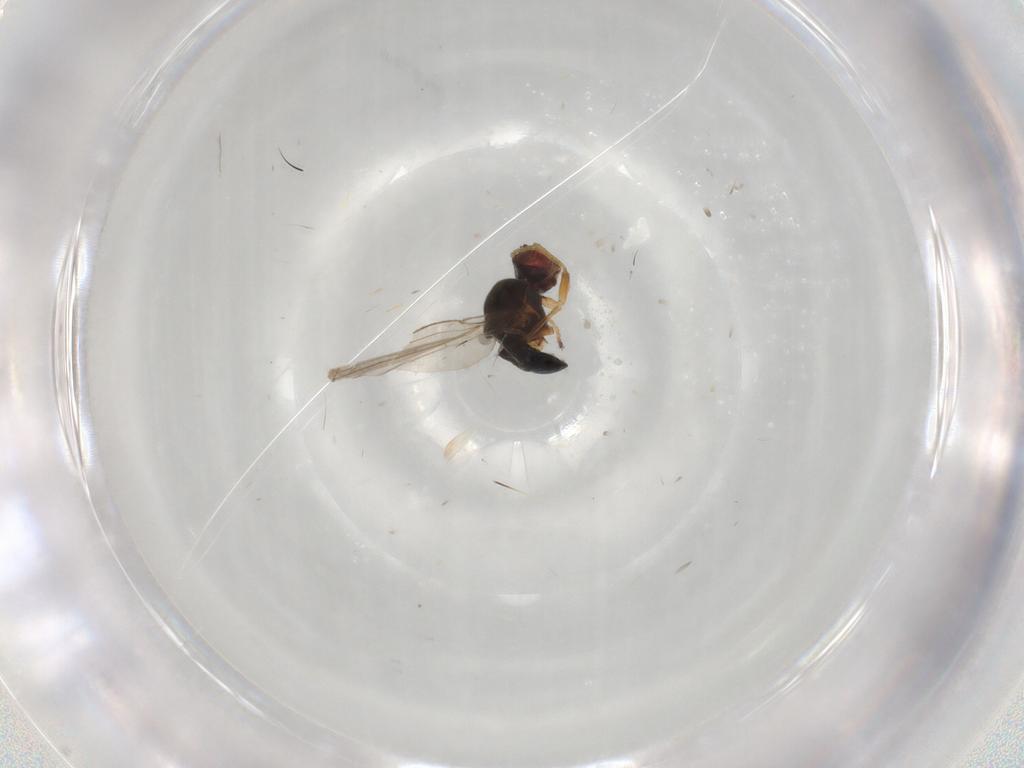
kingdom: Animalia
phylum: Arthropoda
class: Insecta
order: Diptera
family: Ephydridae
